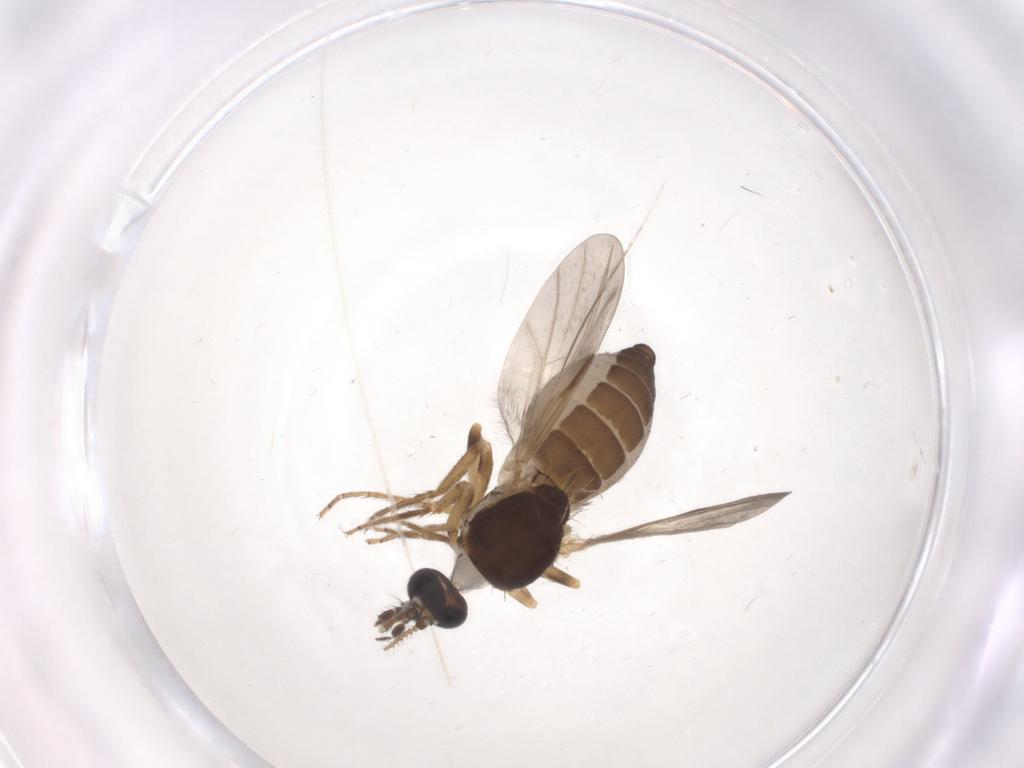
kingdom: Animalia
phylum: Arthropoda
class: Insecta
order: Diptera
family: Ceratopogonidae
